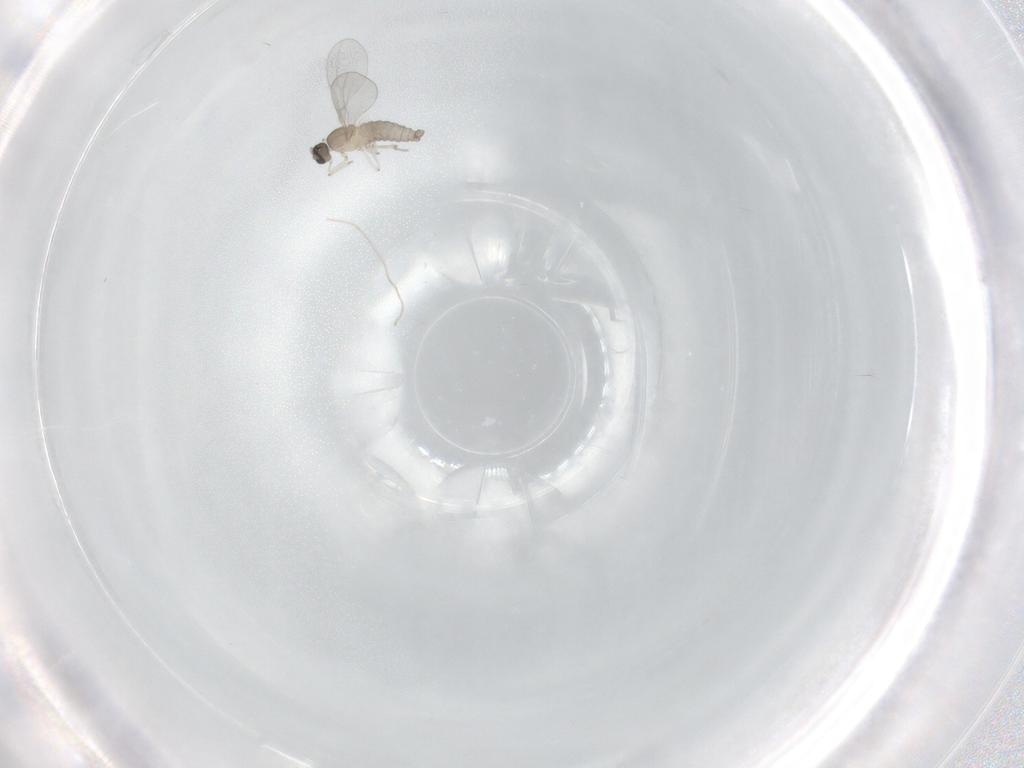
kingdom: Animalia
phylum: Arthropoda
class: Insecta
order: Diptera
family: Cecidomyiidae
